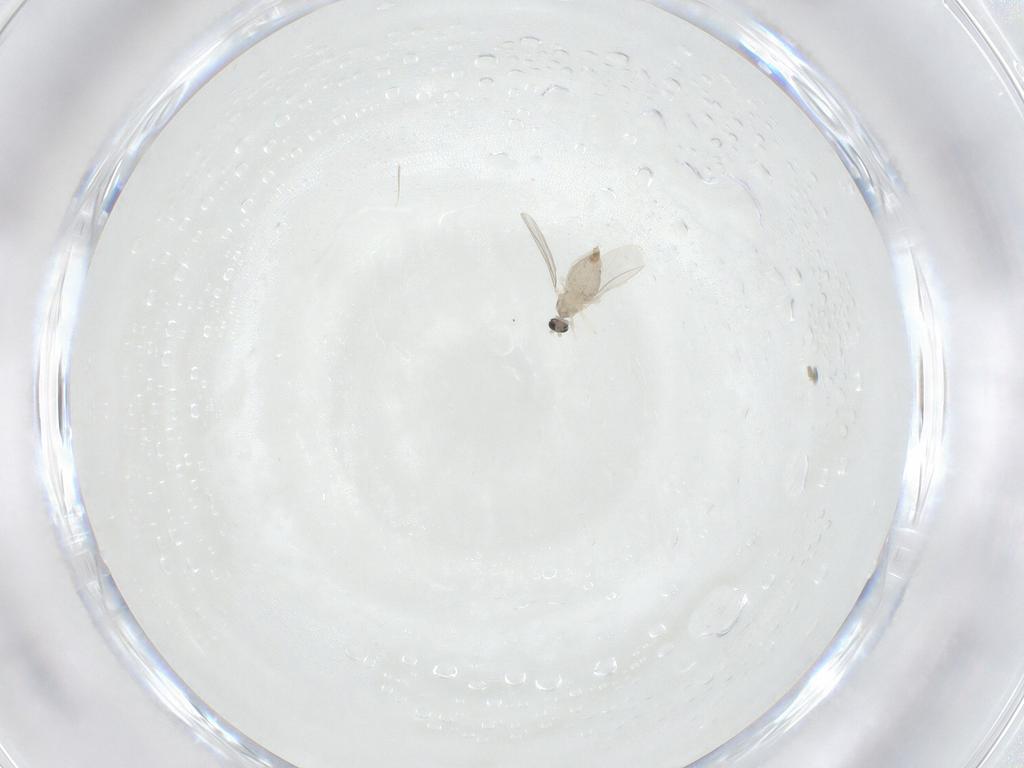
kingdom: Animalia
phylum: Arthropoda
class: Insecta
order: Diptera
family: Cecidomyiidae
